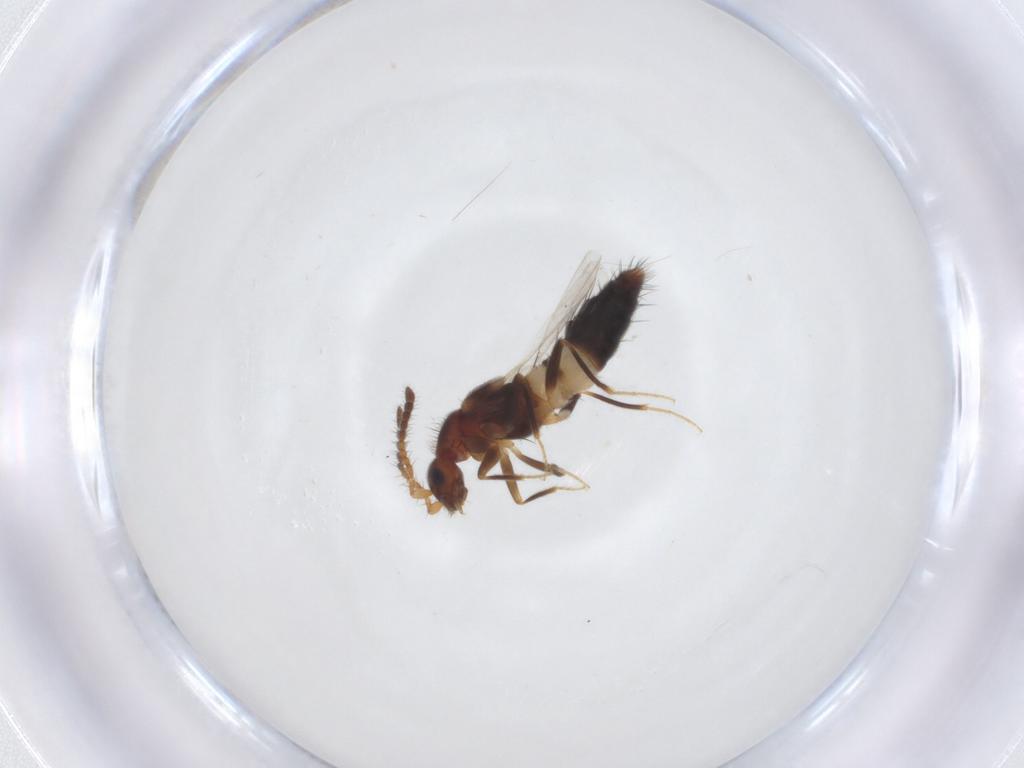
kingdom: Animalia
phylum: Arthropoda
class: Insecta
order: Coleoptera
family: Staphylinidae
